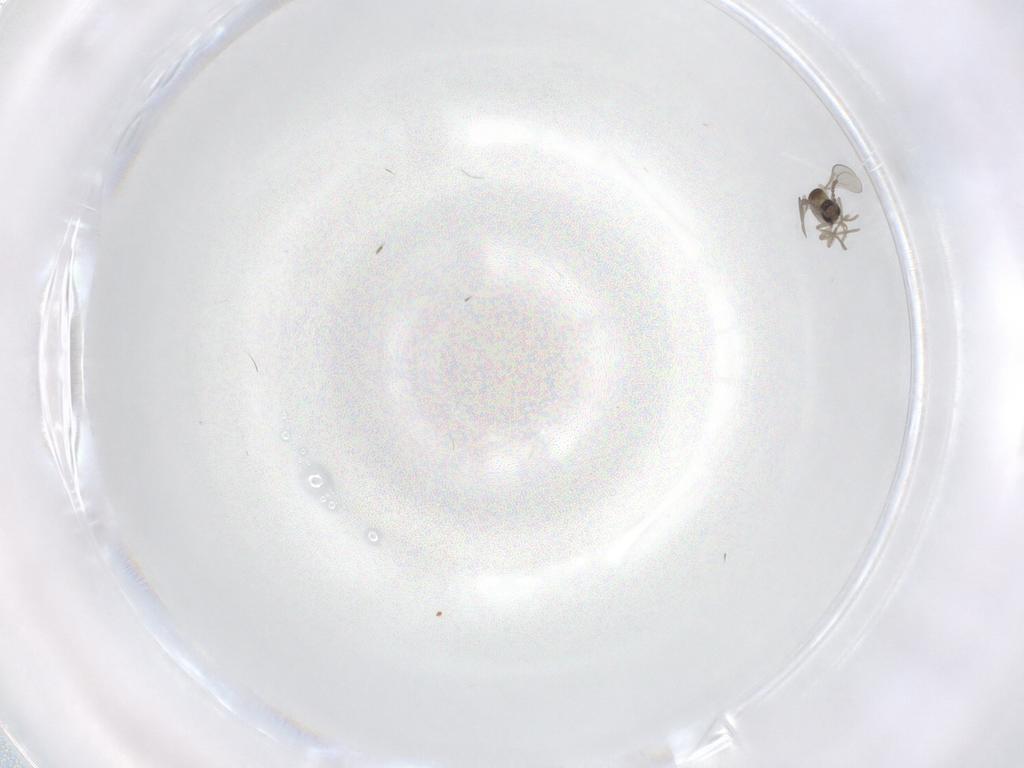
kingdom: Animalia
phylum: Arthropoda
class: Insecta
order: Diptera
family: Cecidomyiidae
